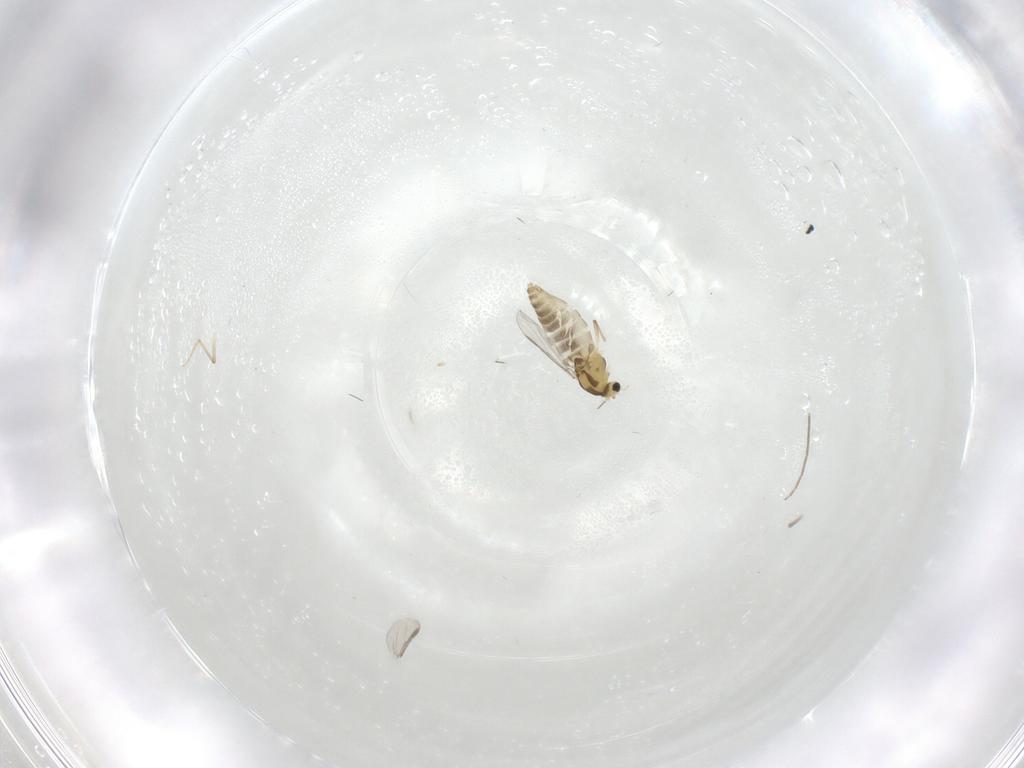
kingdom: Animalia
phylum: Arthropoda
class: Insecta
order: Diptera
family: Chironomidae
